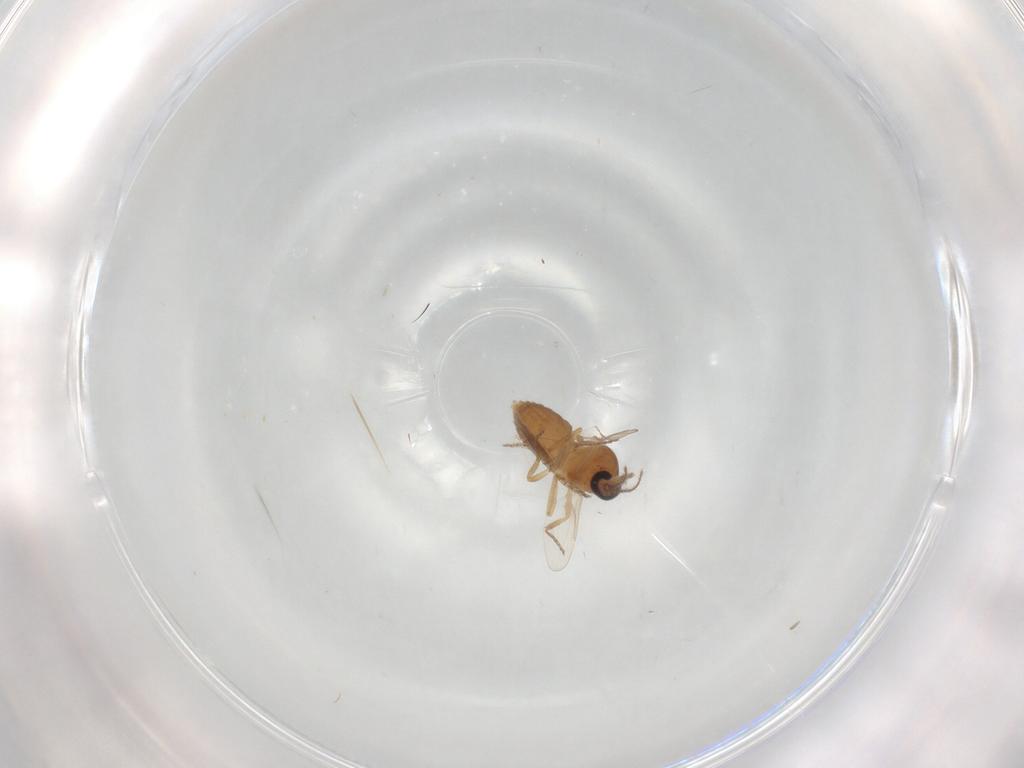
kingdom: Animalia
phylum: Arthropoda
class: Insecta
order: Diptera
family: Ceratopogonidae
